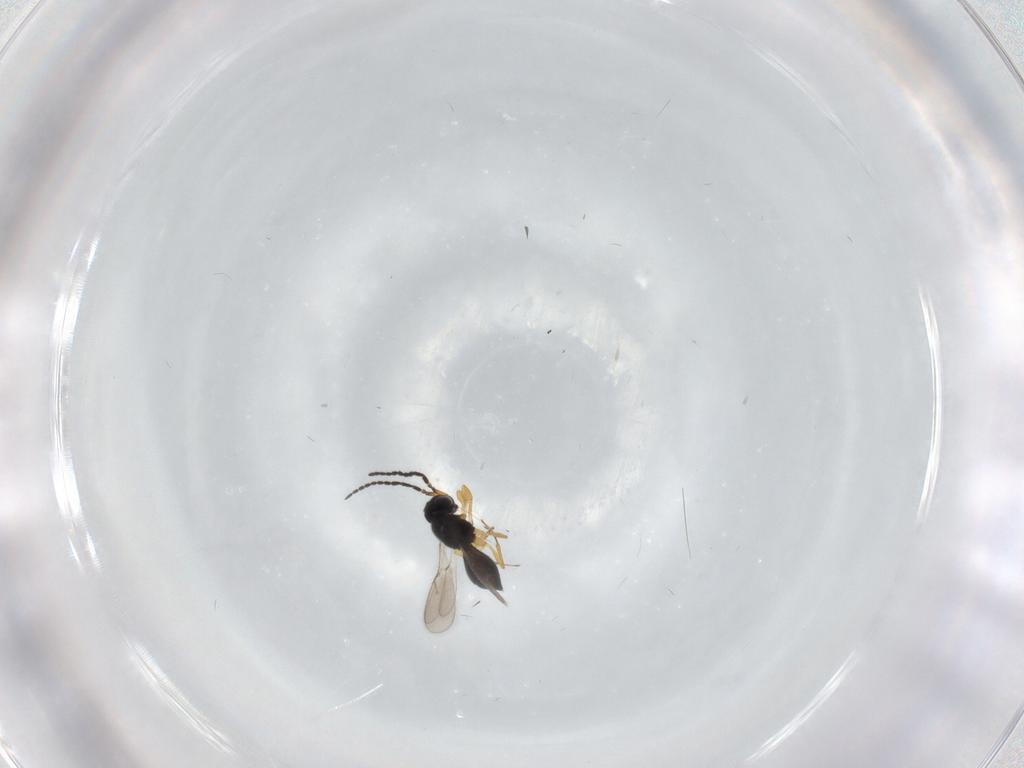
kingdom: Animalia
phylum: Arthropoda
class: Insecta
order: Hymenoptera
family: Scelionidae
